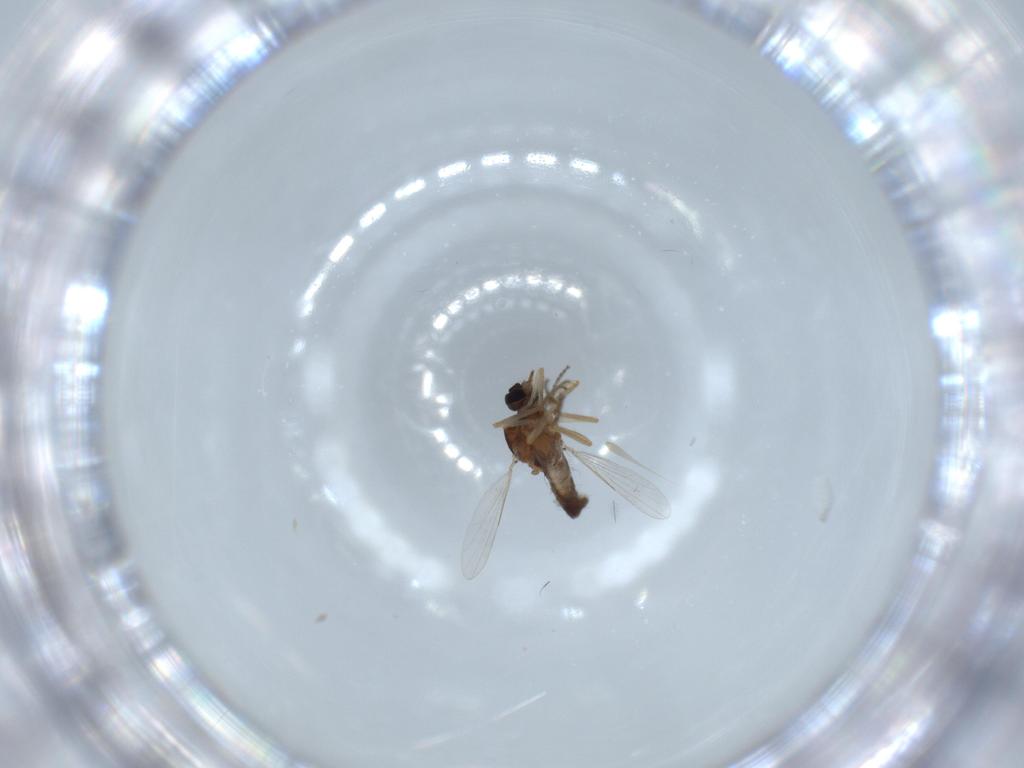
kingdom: Animalia
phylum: Arthropoda
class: Insecta
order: Diptera
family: Ceratopogonidae
